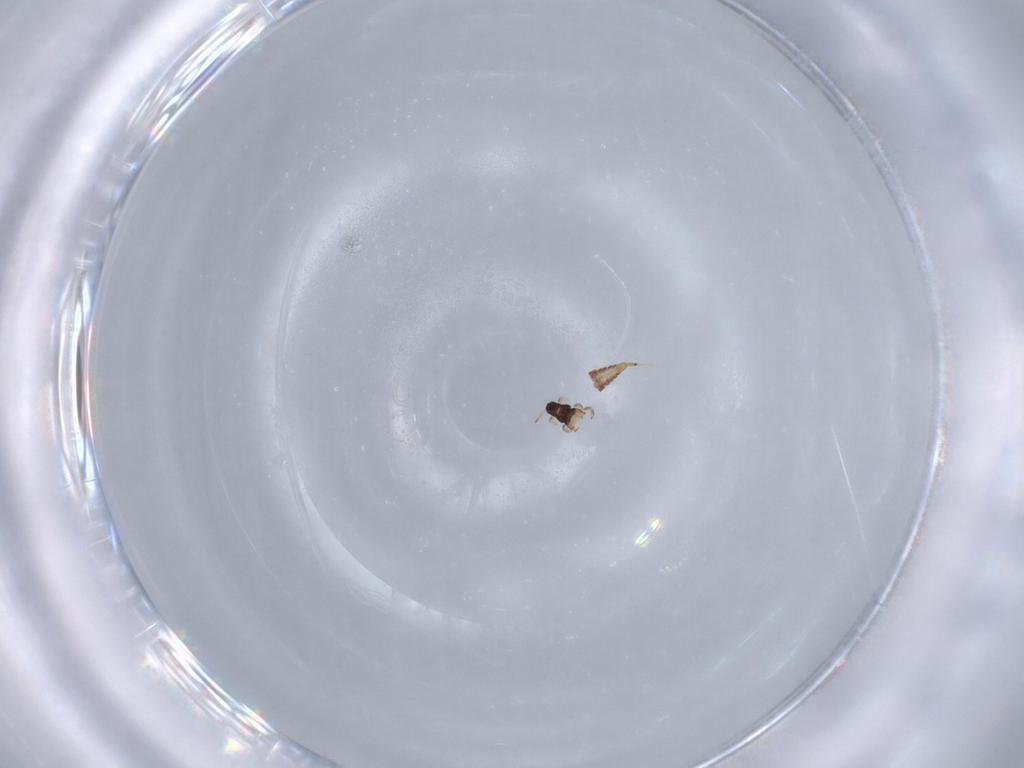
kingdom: Animalia
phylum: Arthropoda
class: Insecta
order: Thysanoptera
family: Phlaeothripidae
